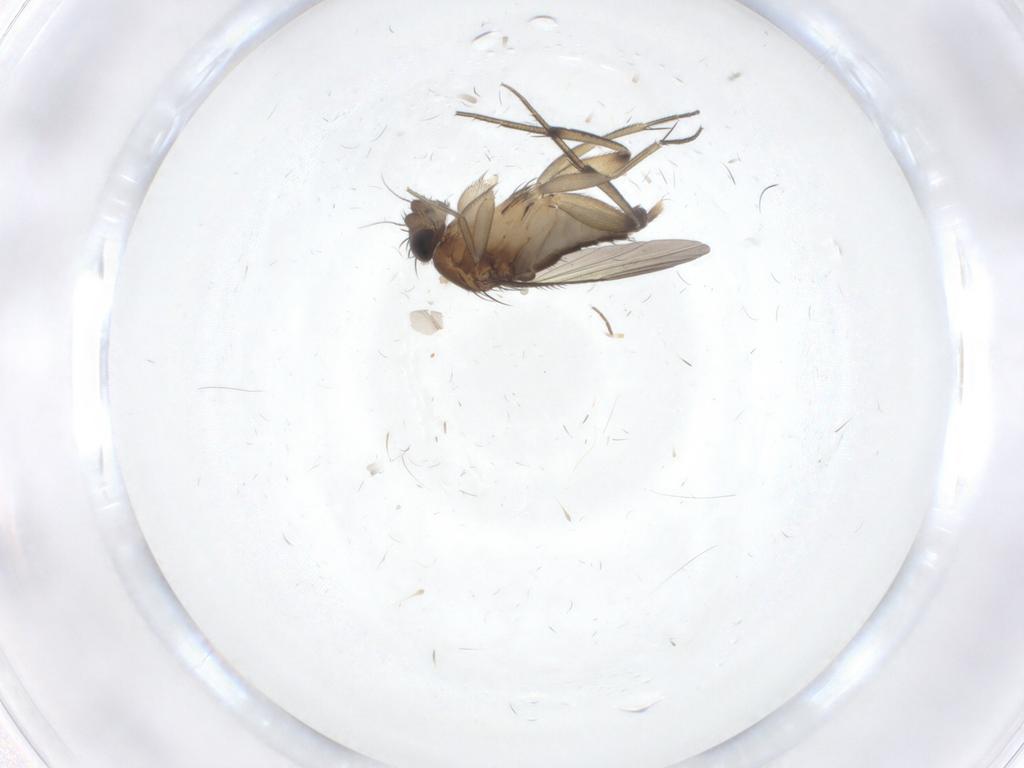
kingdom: Animalia
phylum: Arthropoda
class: Insecta
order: Diptera
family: Phoridae
